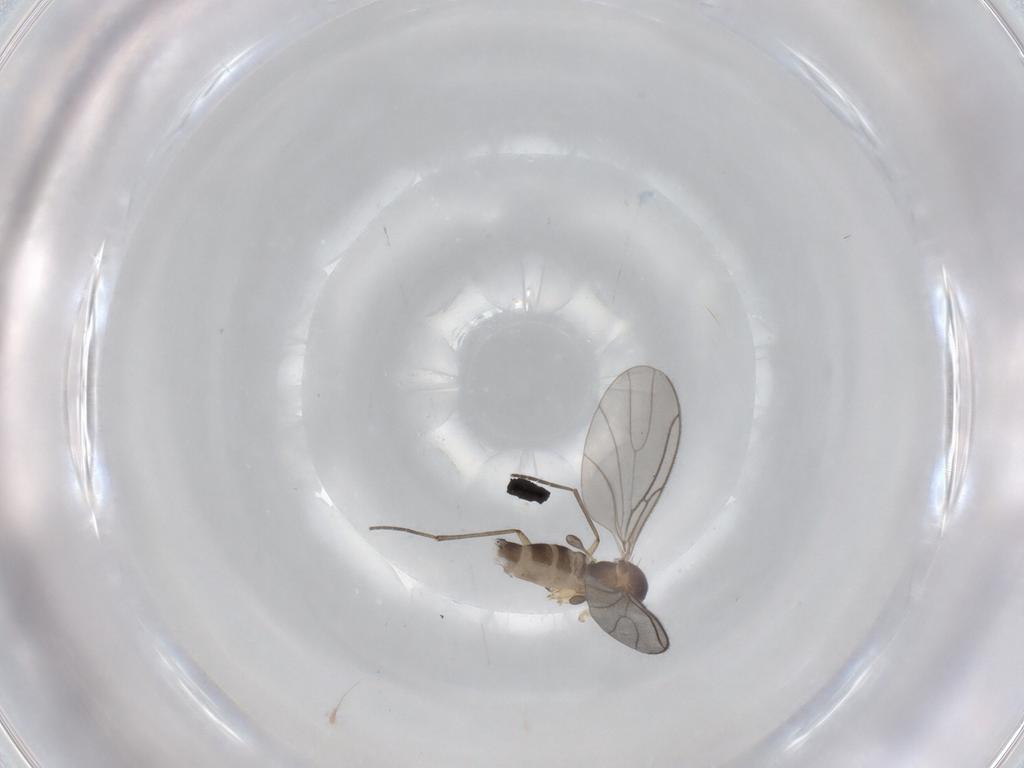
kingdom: Animalia
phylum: Arthropoda
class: Insecta
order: Diptera
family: Sciaridae
